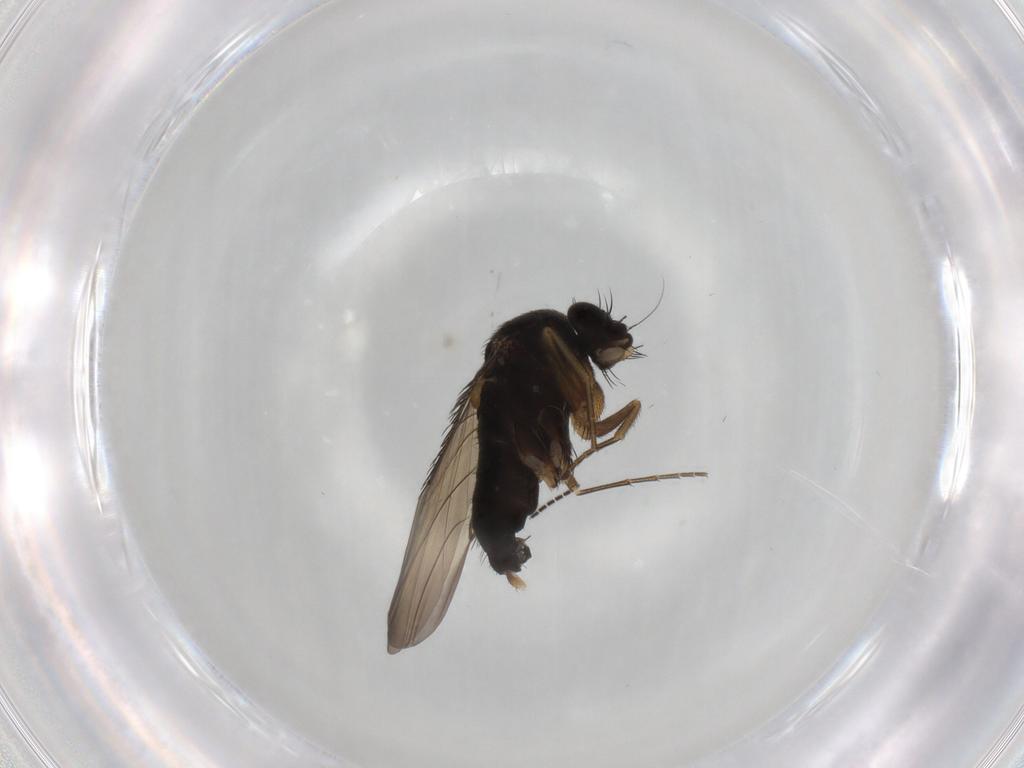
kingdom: Animalia
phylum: Arthropoda
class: Insecta
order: Diptera
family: Phoridae
